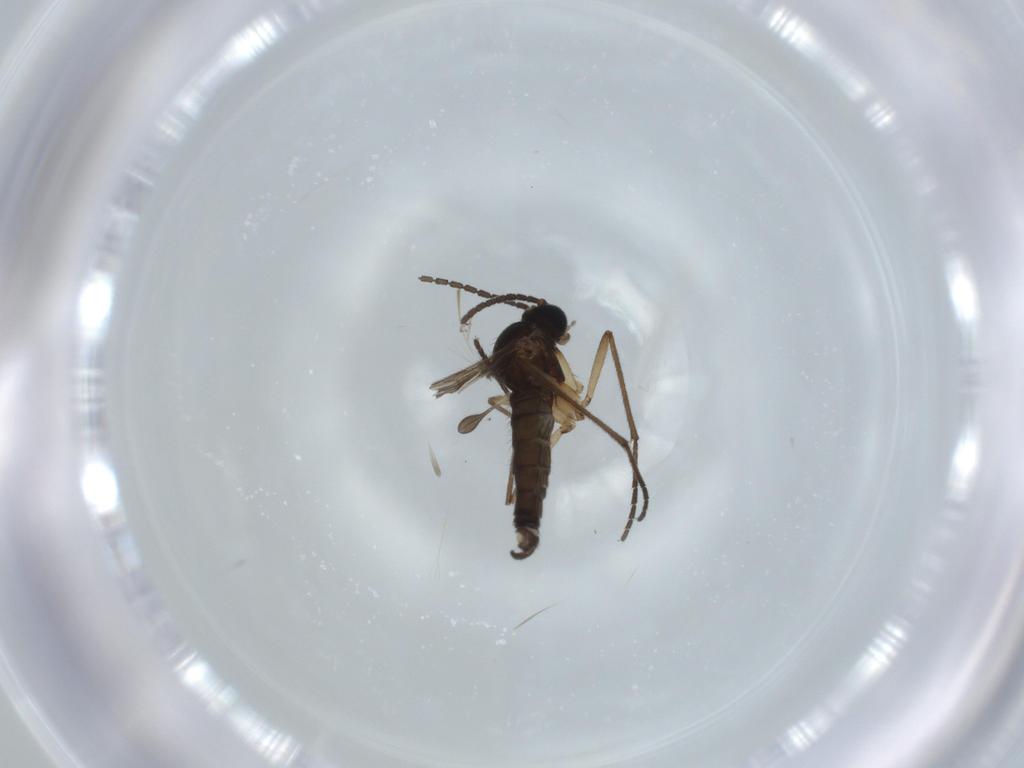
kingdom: Animalia
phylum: Arthropoda
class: Insecta
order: Diptera
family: Sciaridae
